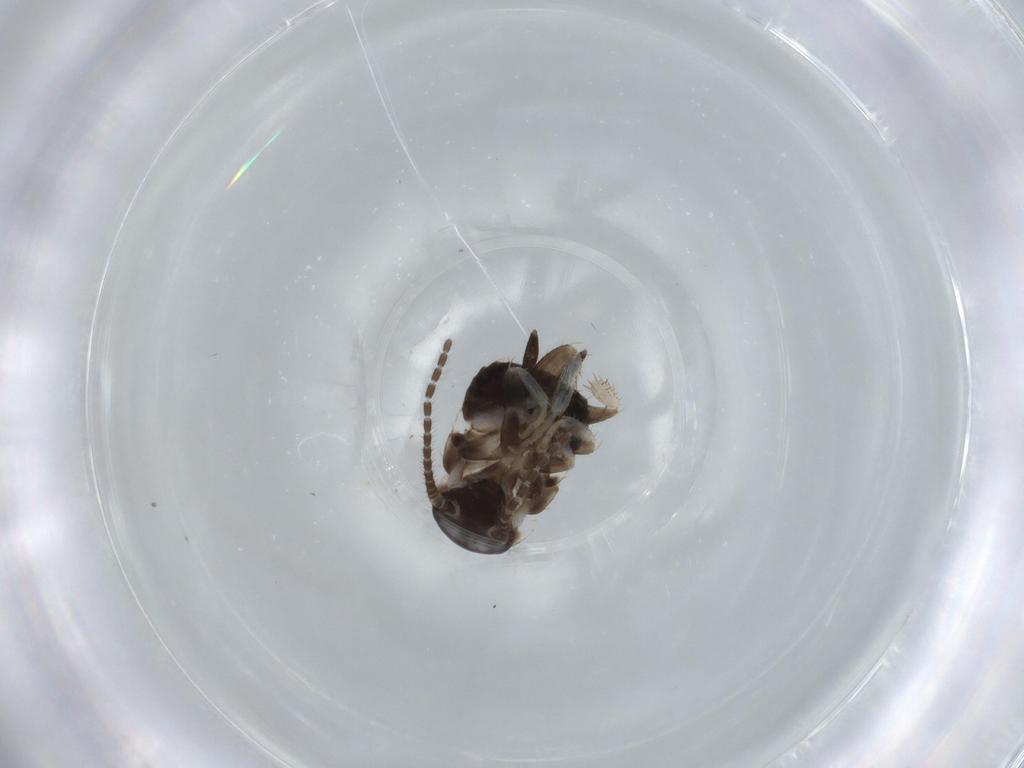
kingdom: Animalia
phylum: Arthropoda
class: Insecta
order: Blattodea
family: Ectobiidae
